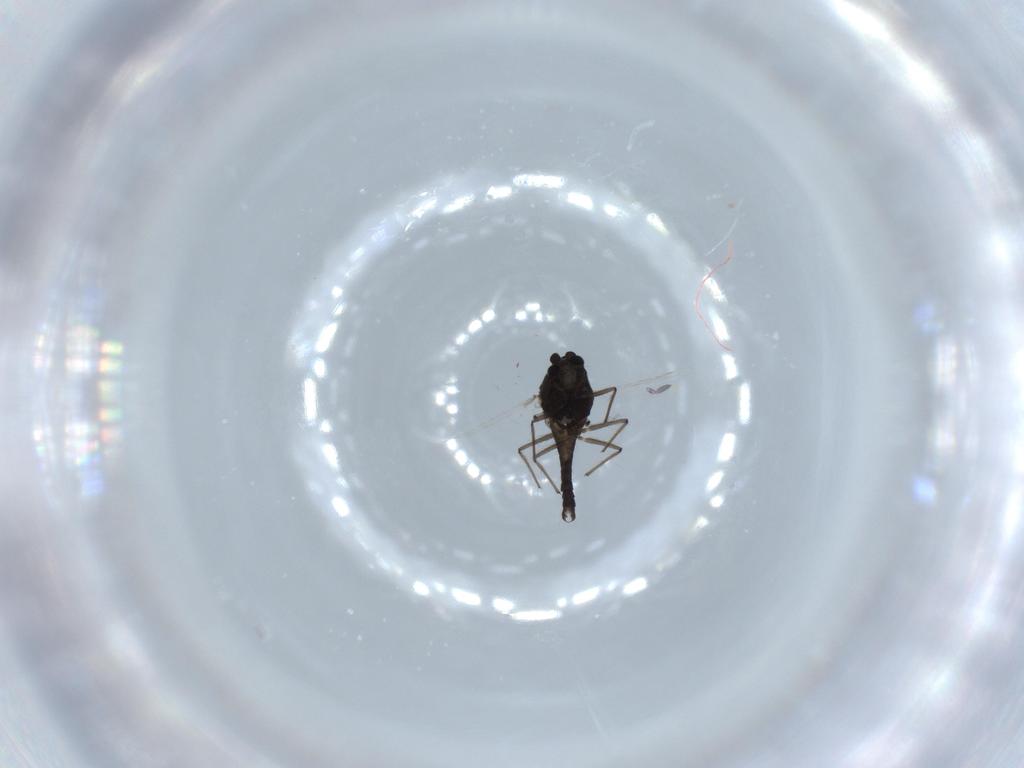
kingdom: Animalia
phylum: Arthropoda
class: Insecta
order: Diptera
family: Chironomidae
